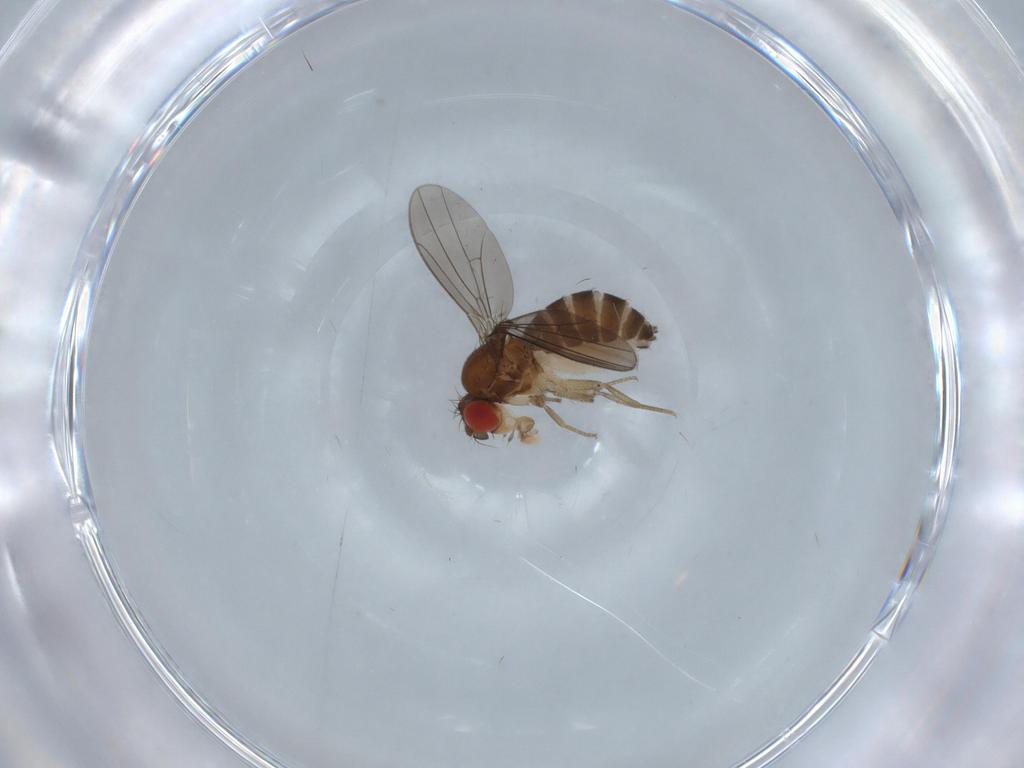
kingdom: Animalia
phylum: Arthropoda
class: Insecta
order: Diptera
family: Drosophilidae
